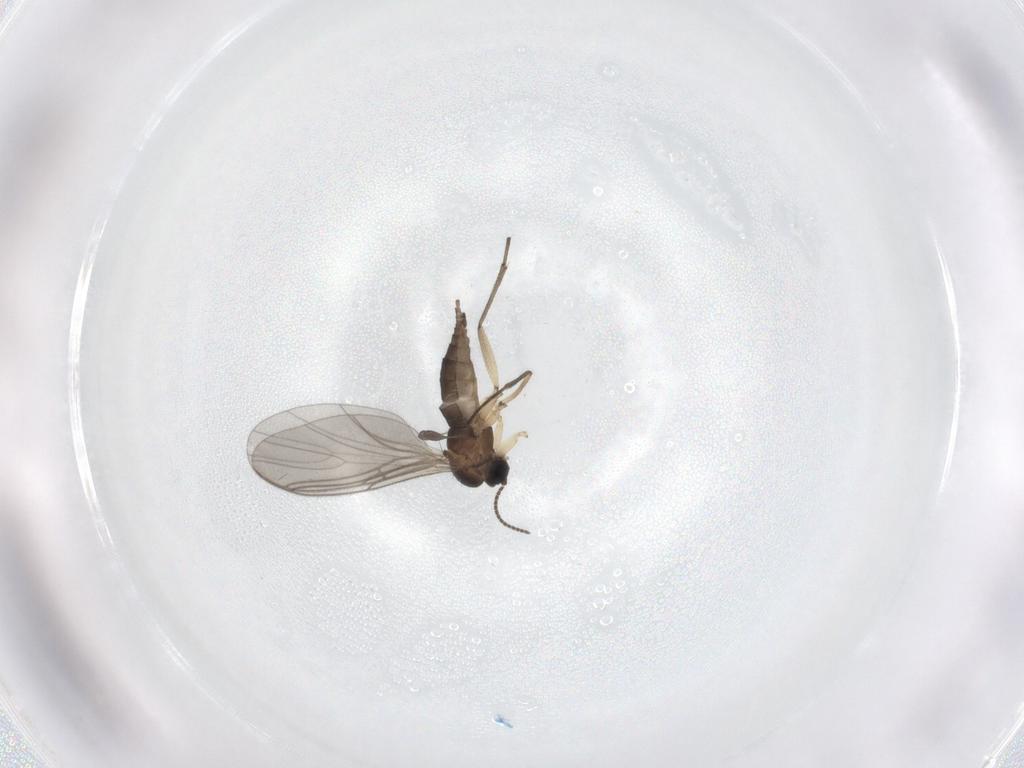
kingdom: Animalia
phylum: Arthropoda
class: Insecta
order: Diptera
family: Sciaridae
